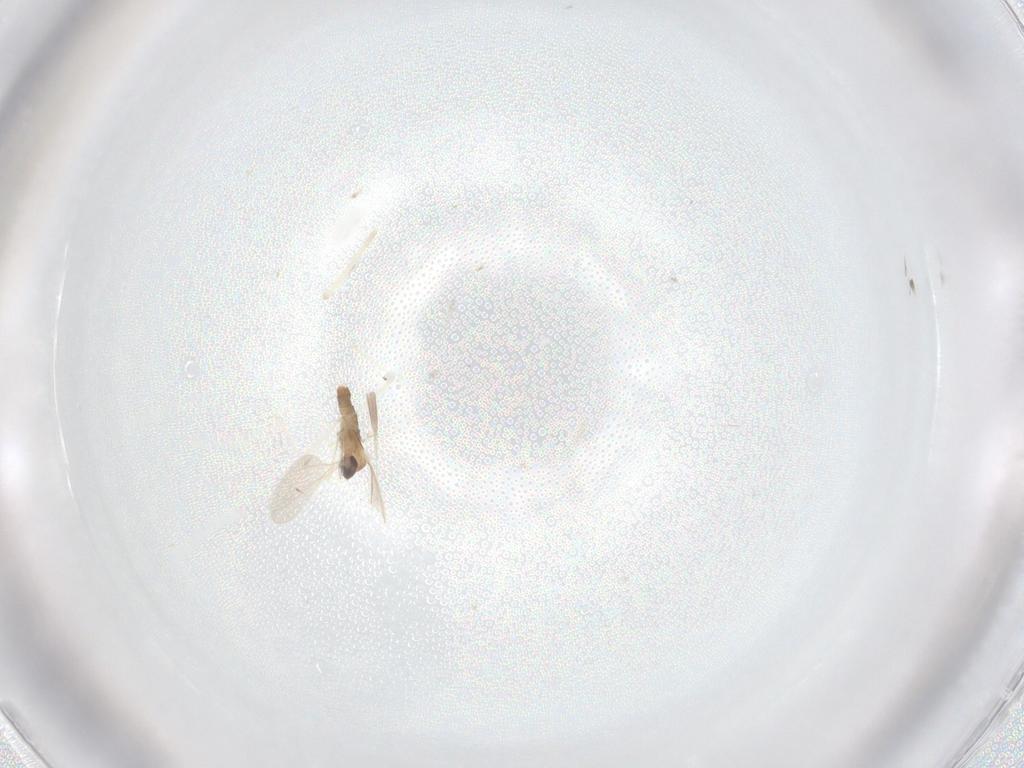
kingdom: Animalia
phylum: Arthropoda
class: Insecta
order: Diptera
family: Cecidomyiidae
